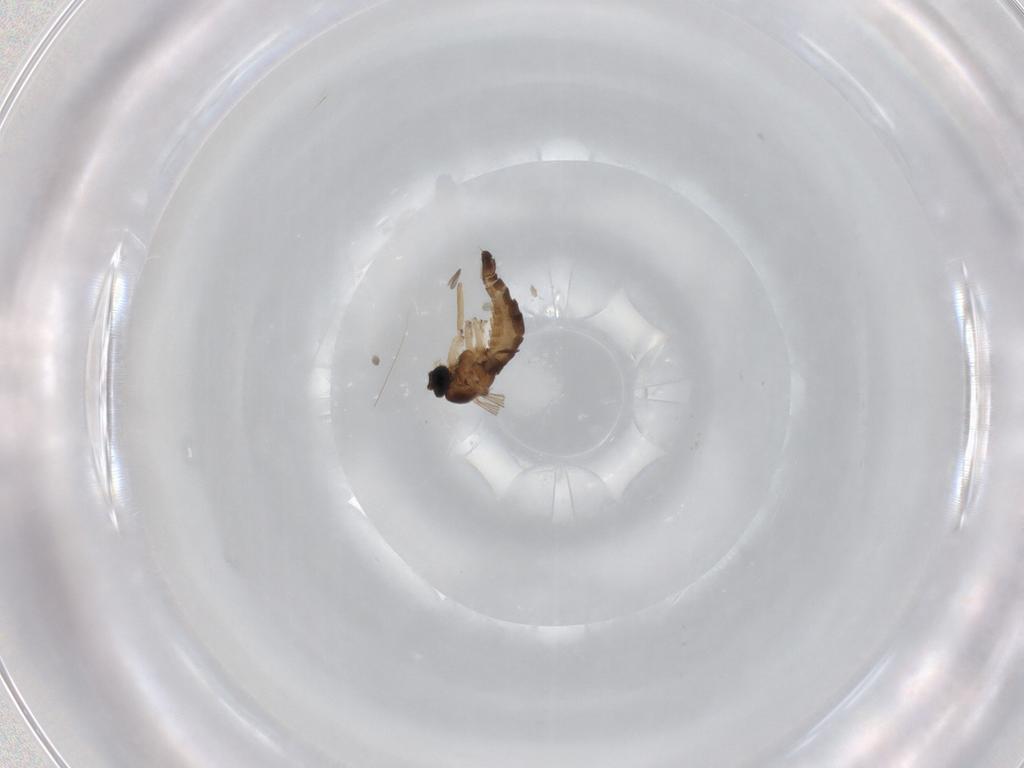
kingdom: Animalia
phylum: Arthropoda
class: Insecta
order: Diptera
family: Sciaridae
